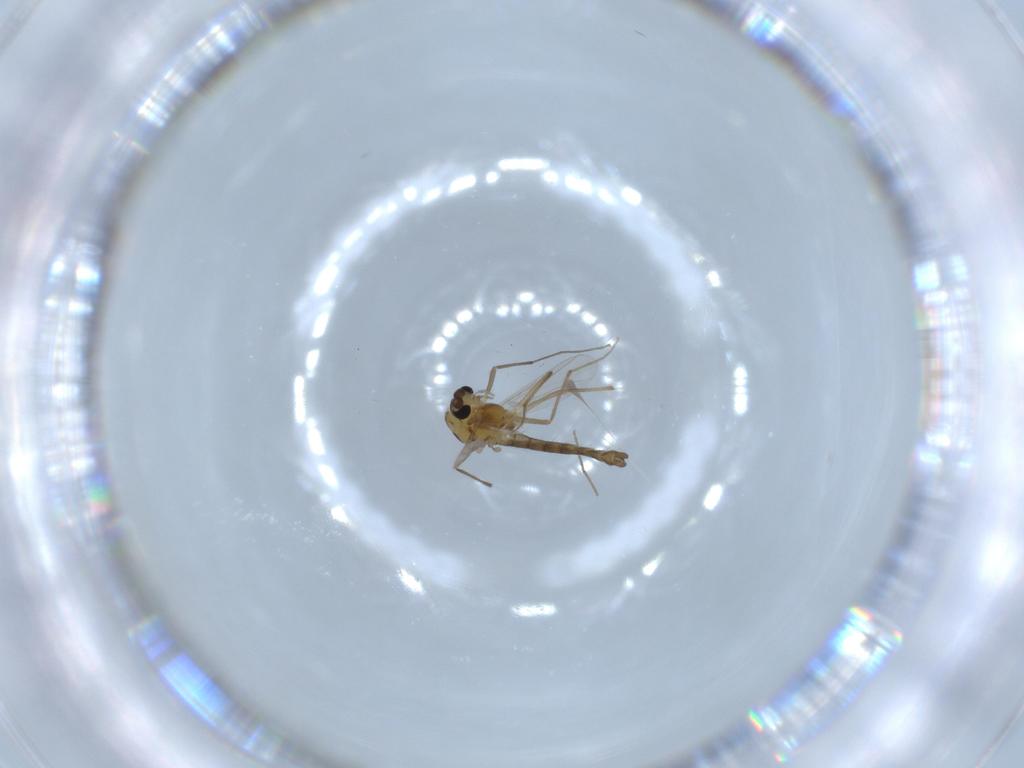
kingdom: Animalia
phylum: Arthropoda
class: Insecta
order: Diptera
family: Chironomidae
